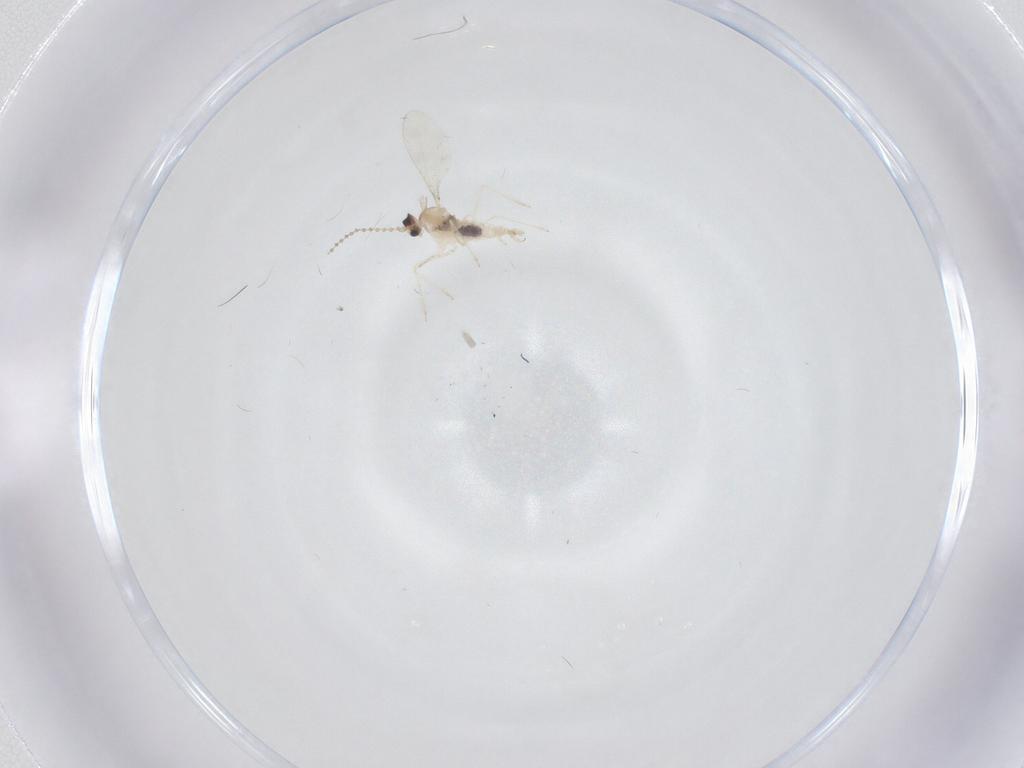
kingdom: Animalia
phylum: Arthropoda
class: Insecta
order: Diptera
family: Cecidomyiidae
